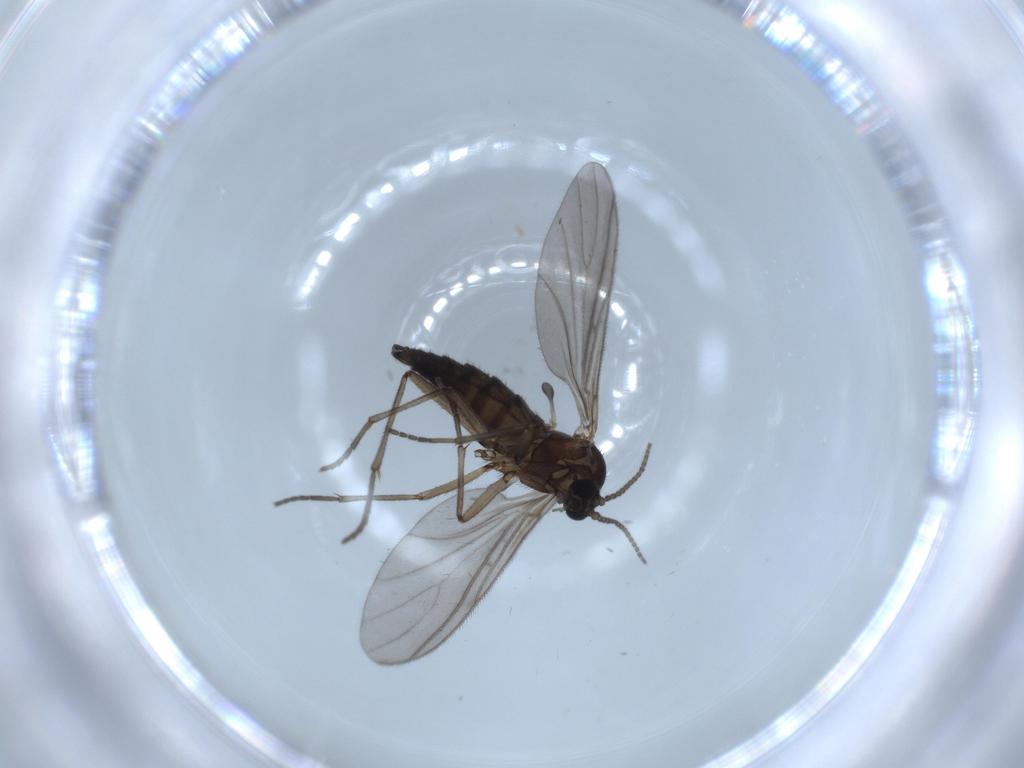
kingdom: Animalia
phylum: Arthropoda
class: Insecta
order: Diptera
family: Sciaridae
